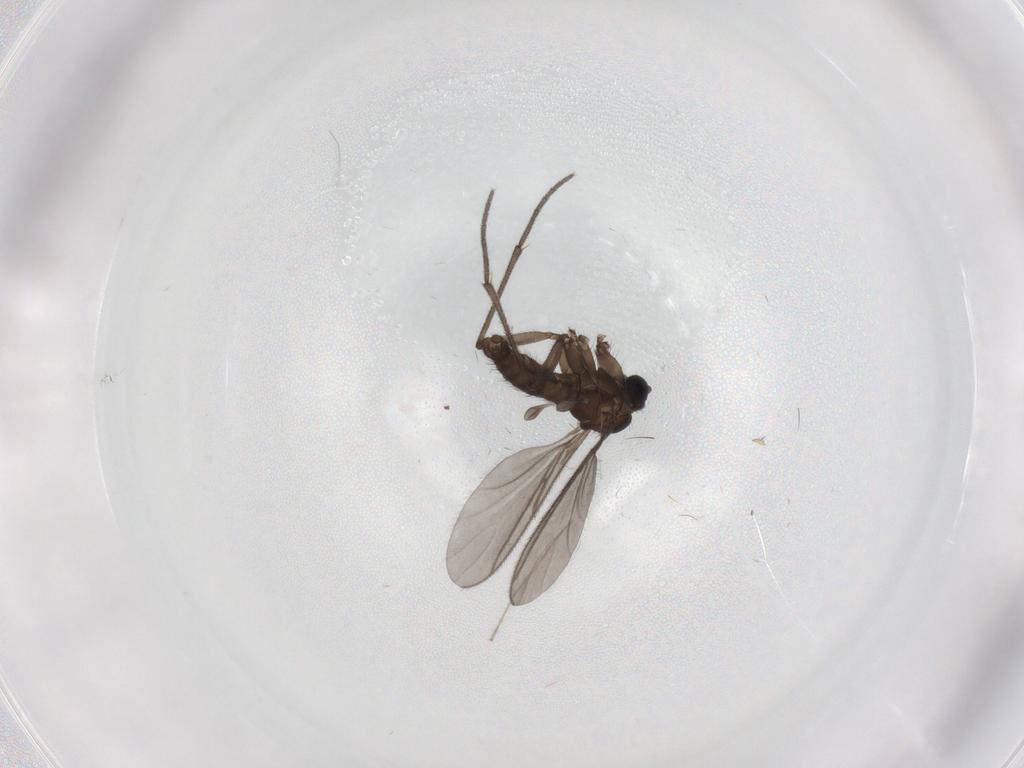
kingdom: Animalia
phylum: Arthropoda
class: Insecta
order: Diptera
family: Sciaridae
